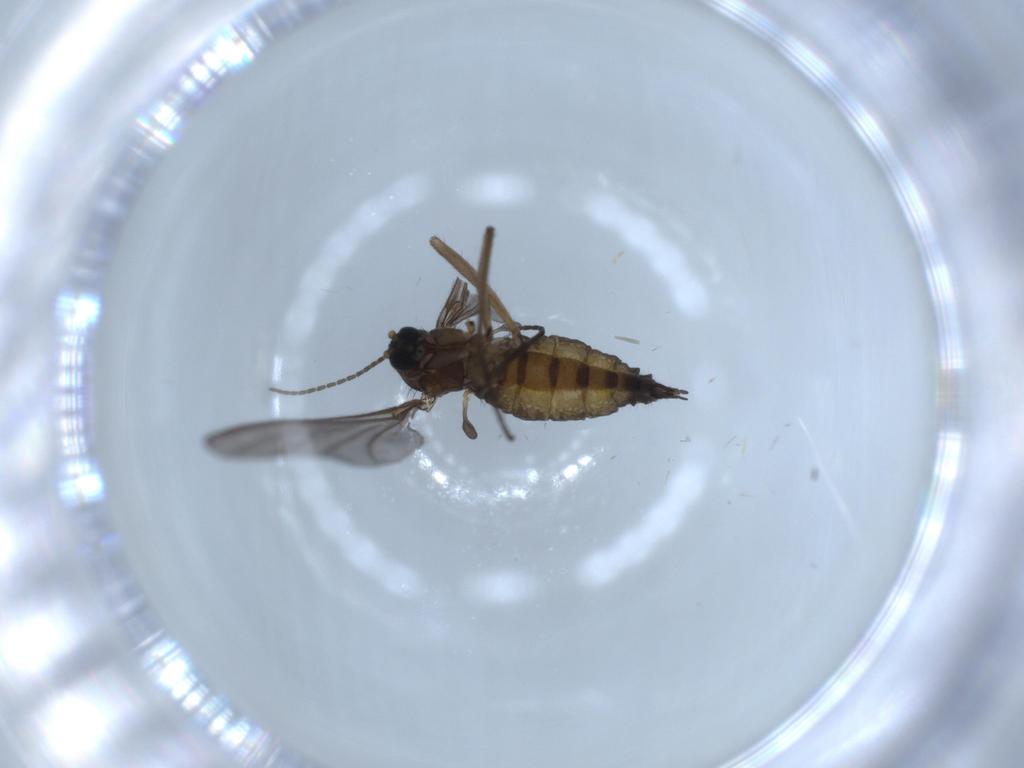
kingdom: Animalia
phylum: Arthropoda
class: Insecta
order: Diptera
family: Sciaridae
